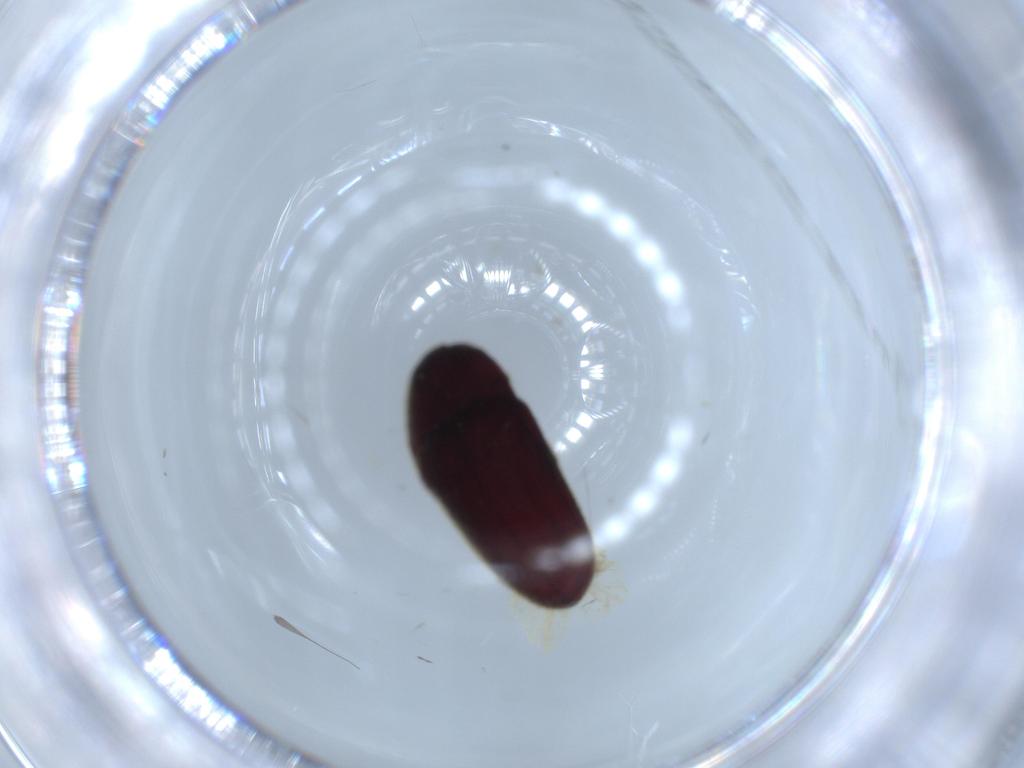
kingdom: Animalia
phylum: Arthropoda
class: Insecta
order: Coleoptera
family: Throscidae
